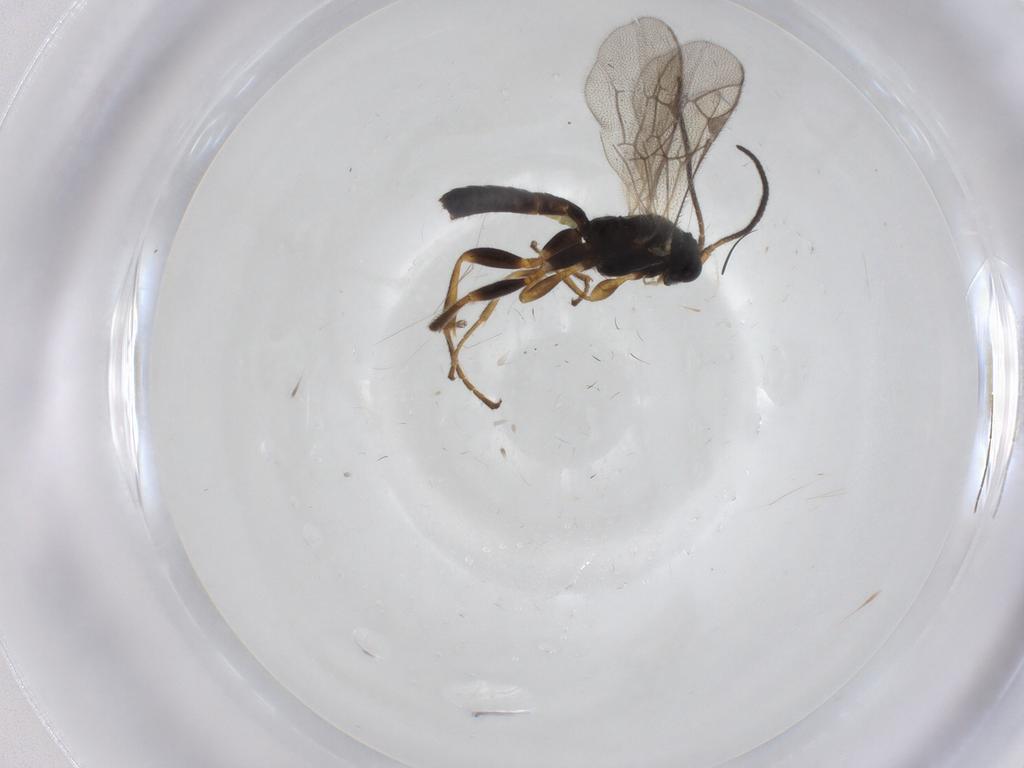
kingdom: Animalia
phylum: Arthropoda
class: Insecta
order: Hymenoptera
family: Ichneumonidae
